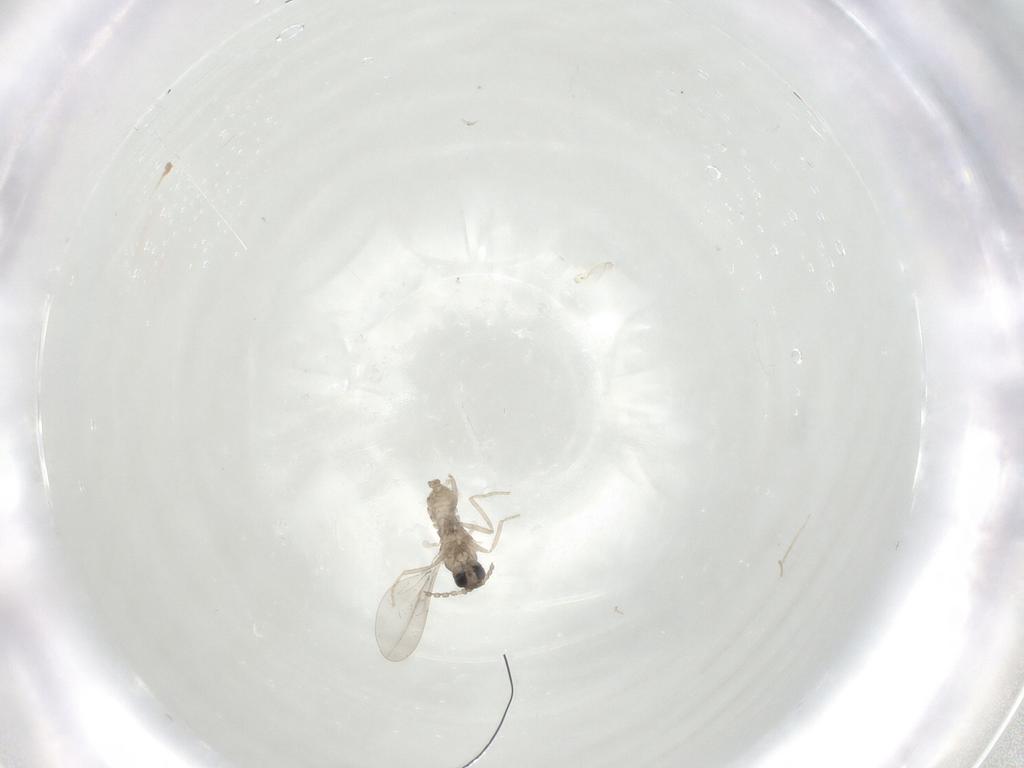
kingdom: Animalia
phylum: Arthropoda
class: Insecta
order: Diptera
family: Cecidomyiidae
